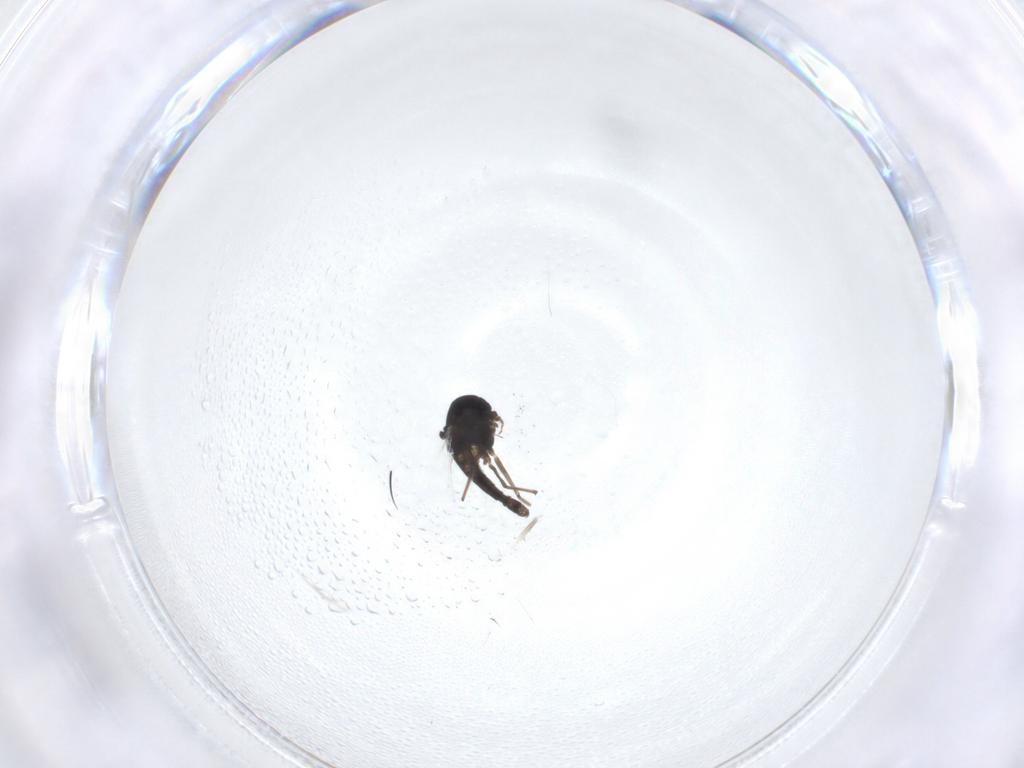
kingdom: Animalia
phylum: Arthropoda
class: Insecta
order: Diptera
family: Chironomidae
